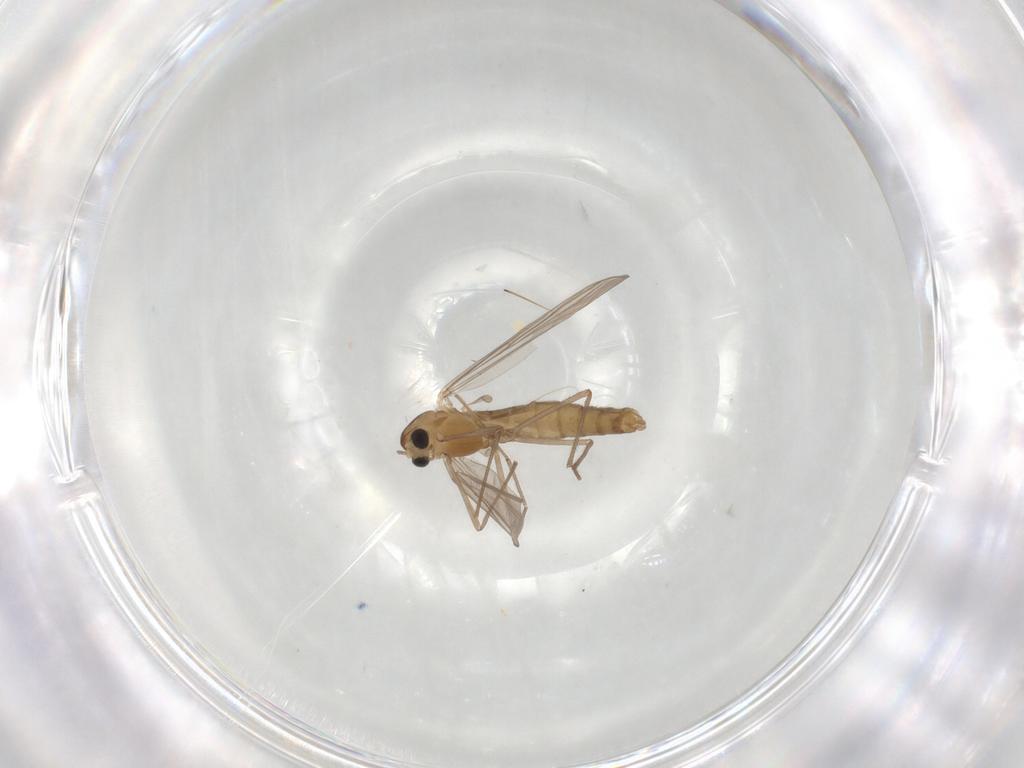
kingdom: Animalia
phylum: Arthropoda
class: Insecta
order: Diptera
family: Chironomidae
